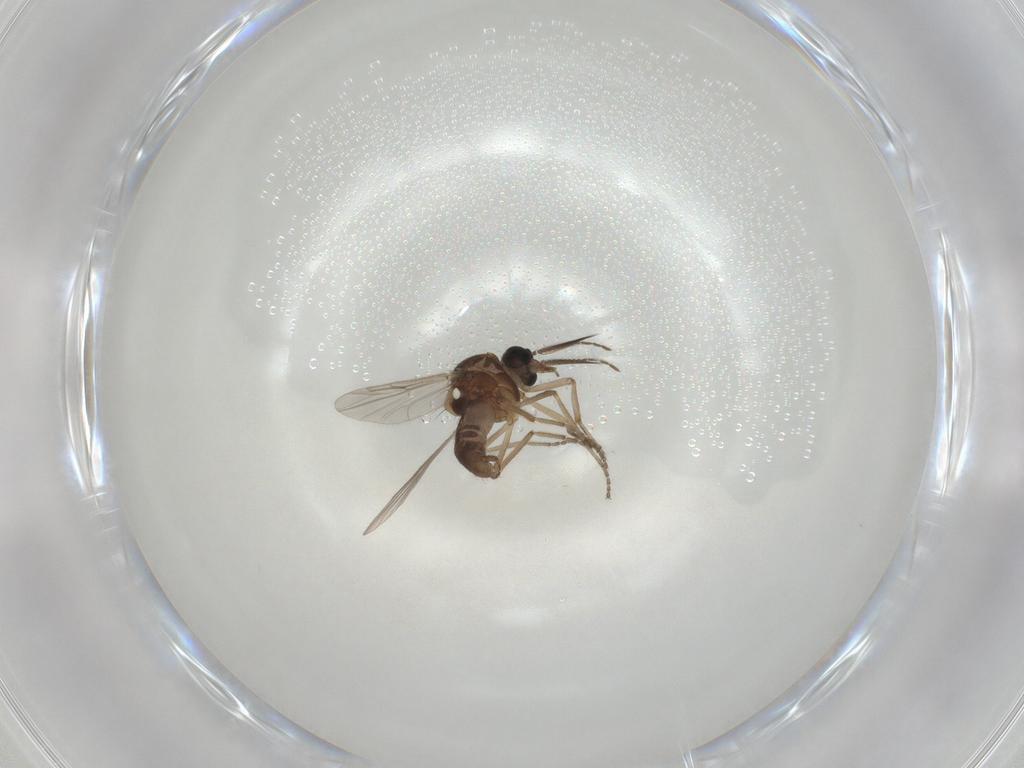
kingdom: Animalia
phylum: Arthropoda
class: Insecta
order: Diptera
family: Ceratopogonidae
